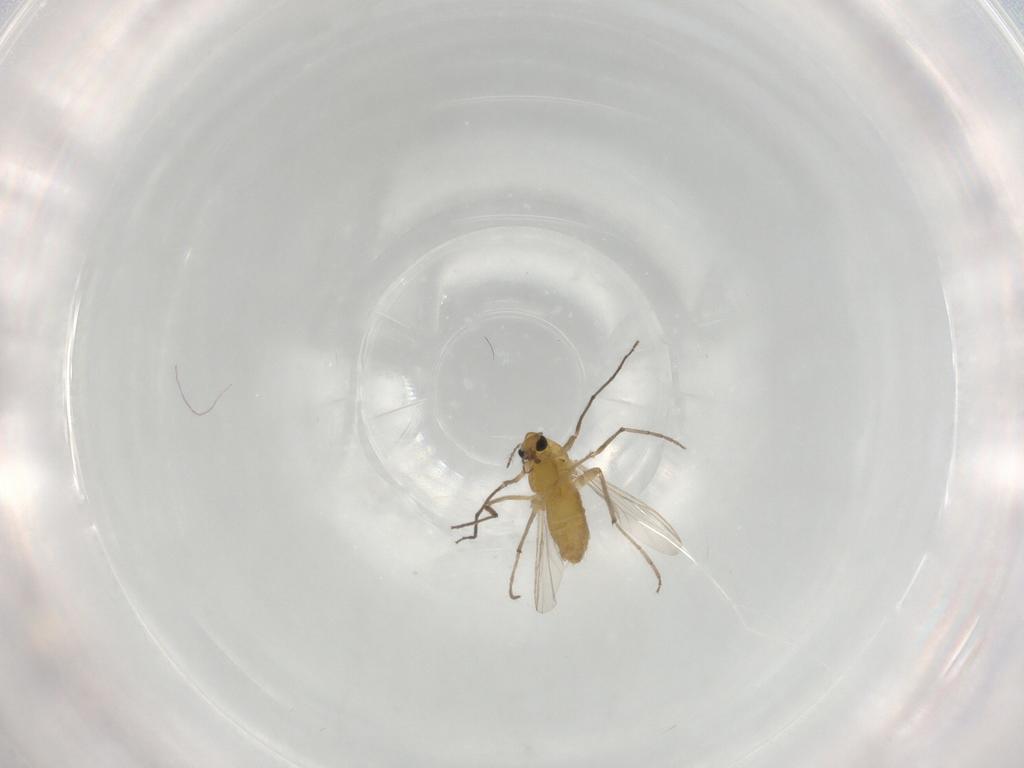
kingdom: Animalia
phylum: Arthropoda
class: Insecta
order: Diptera
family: Chironomidae
